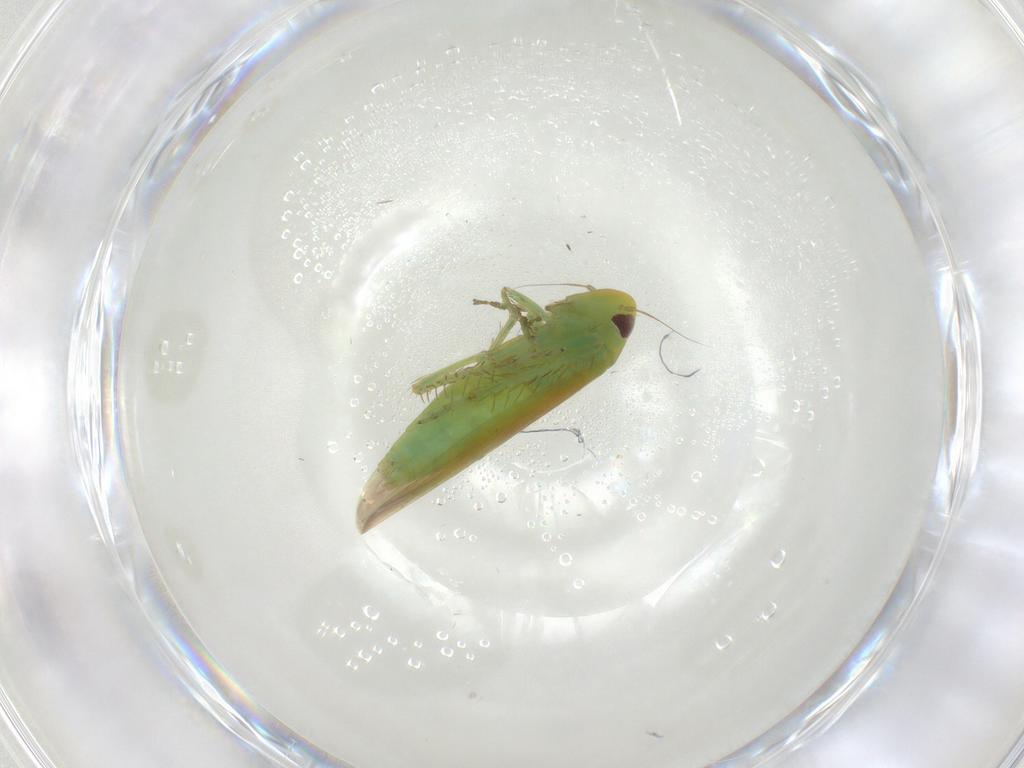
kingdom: Animalia
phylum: Arthropoda
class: Insecta
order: Hemiptera
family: Cicadellidae
